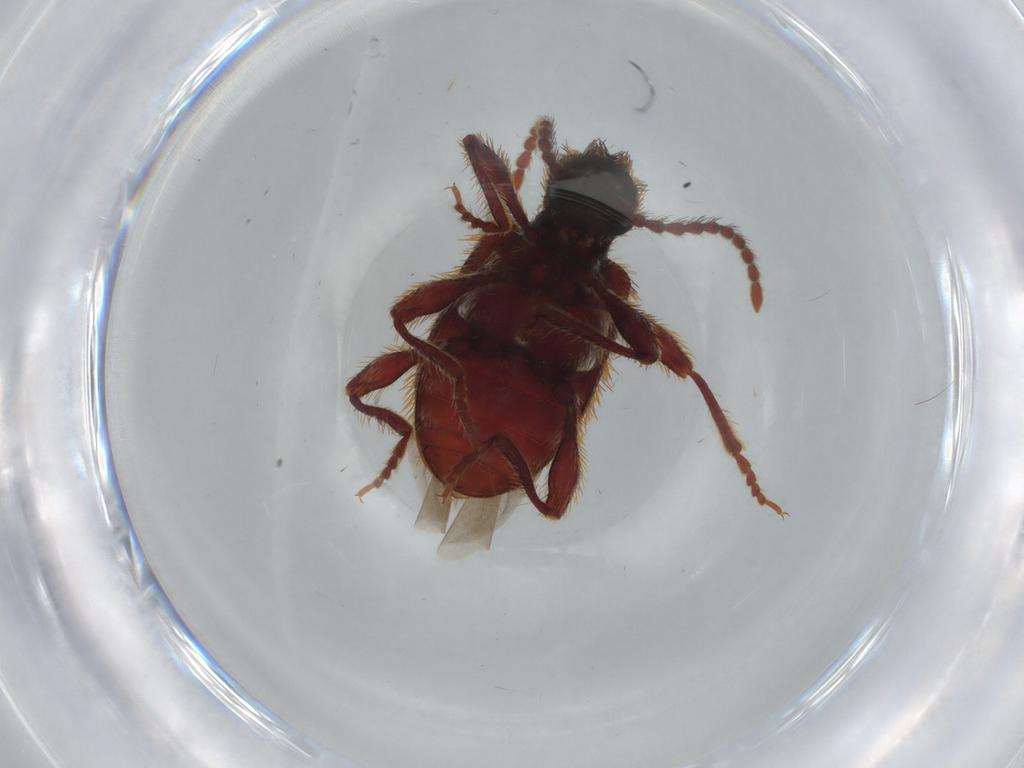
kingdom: Animalia
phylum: Arthropoda
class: Insecta
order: Coleoptera
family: Ptinidae
